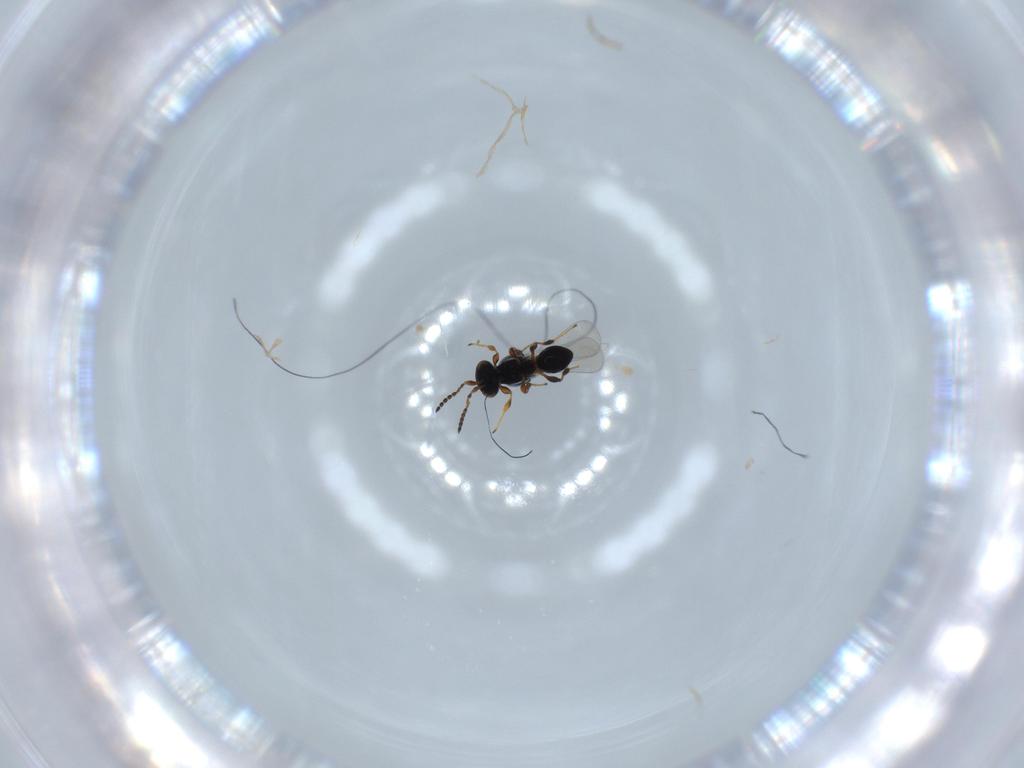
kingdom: Animalia
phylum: Arthropoda
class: Insecta
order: Hymenoptera
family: Platygastridae
